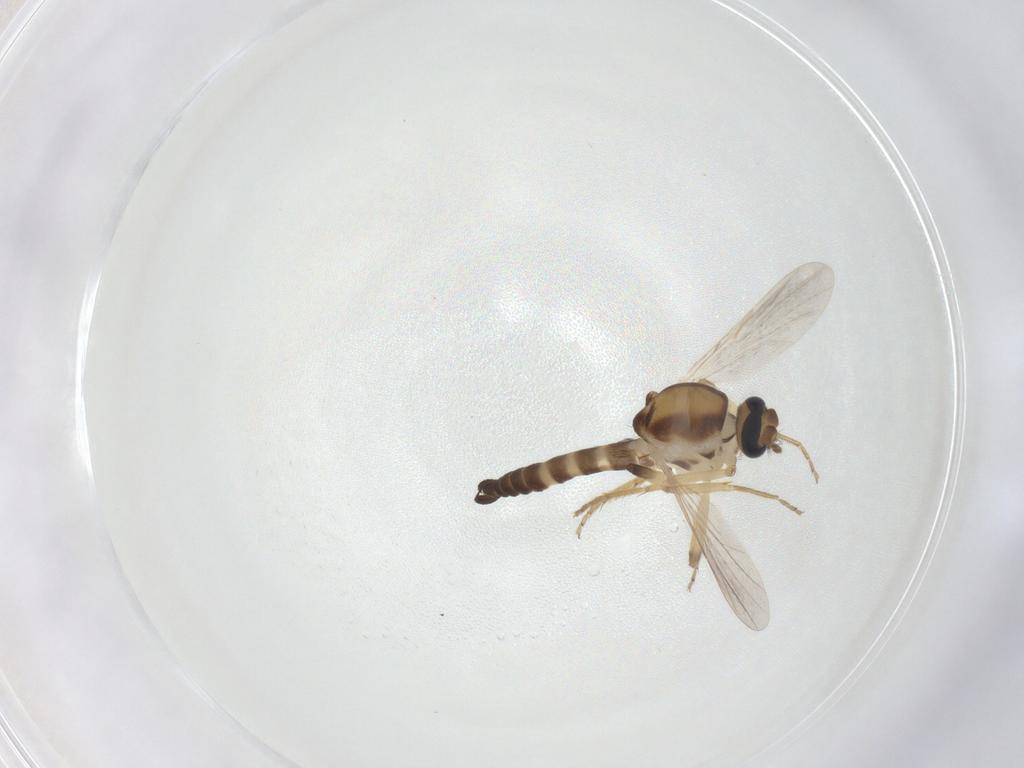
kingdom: Animalia
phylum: Arthropoda
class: Insecta
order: Diptera
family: Ceratopogonidae
